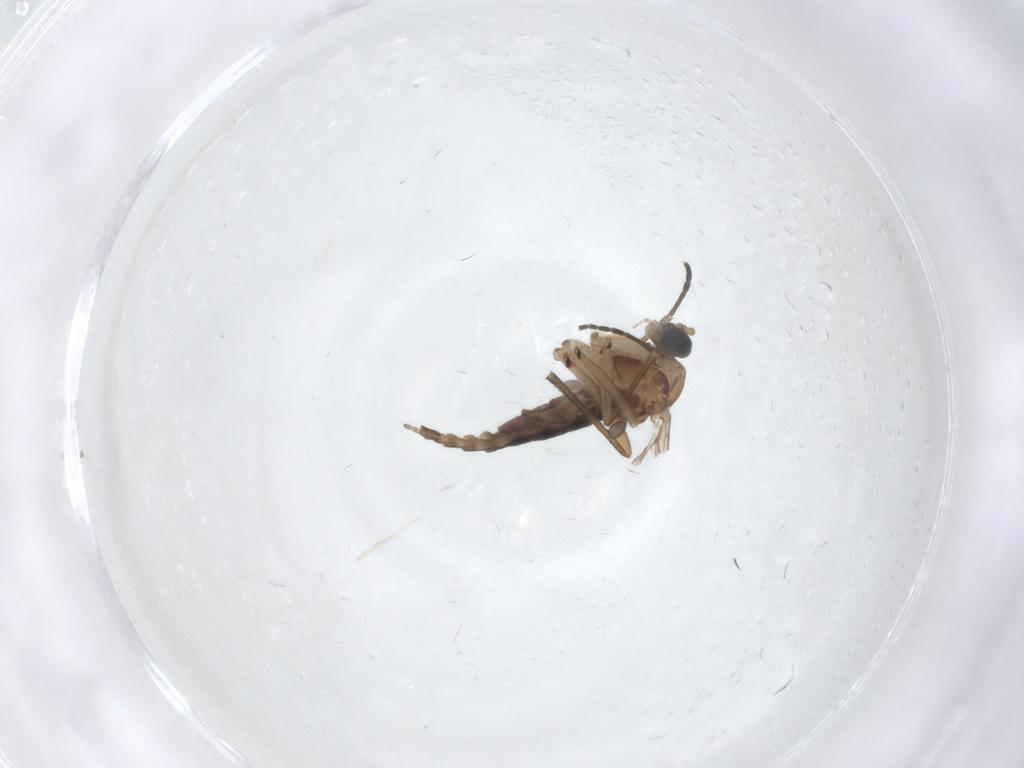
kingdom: Animalia
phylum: Arthropoda
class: Insecta
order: Diptera
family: Sciaridae
